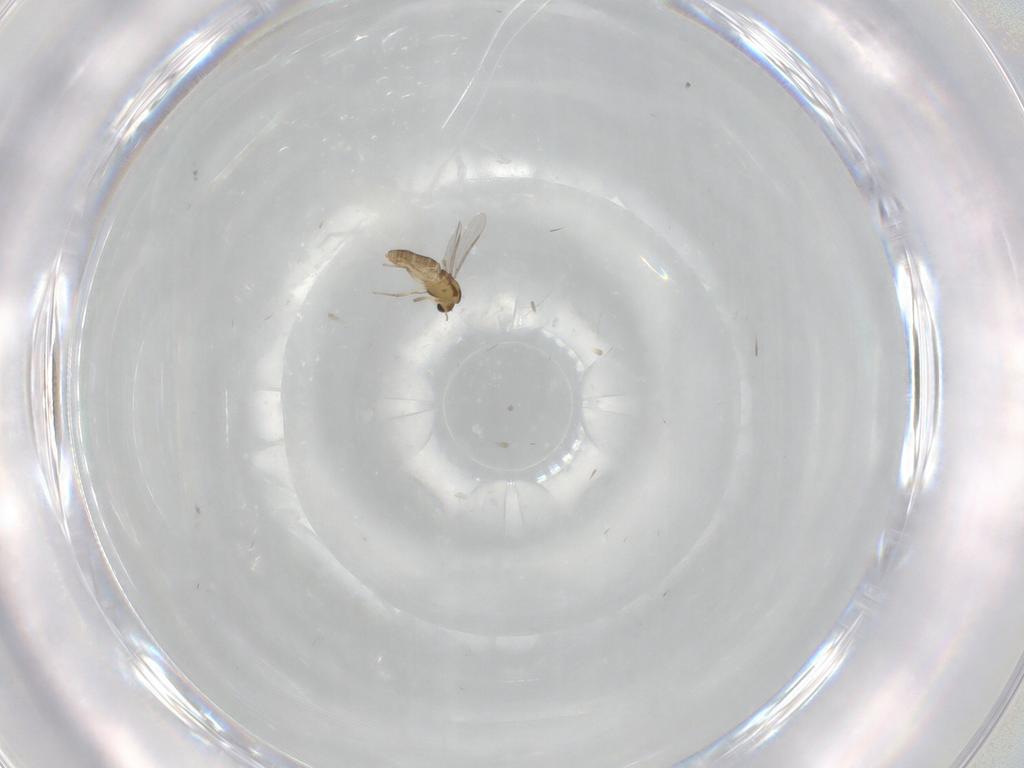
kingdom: Animalia
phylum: Arthropoda
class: Insecta
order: Diptera
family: Chironomidae
